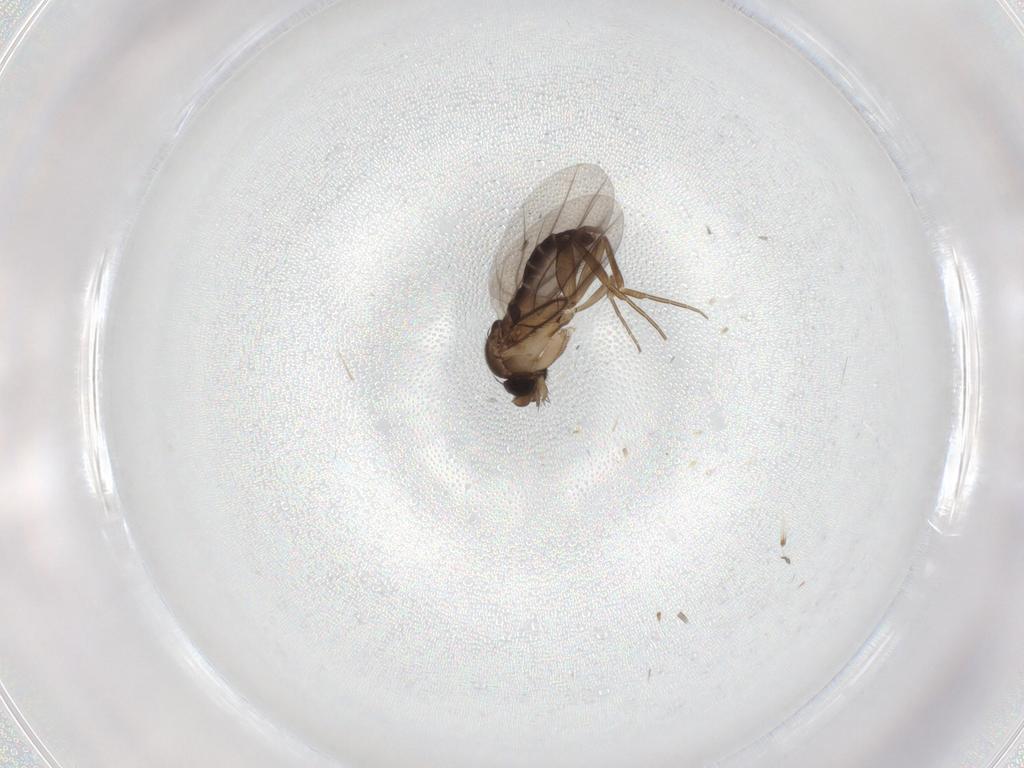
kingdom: Animalia
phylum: Arthropoda
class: Insecta
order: Diptera
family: Phoridae
